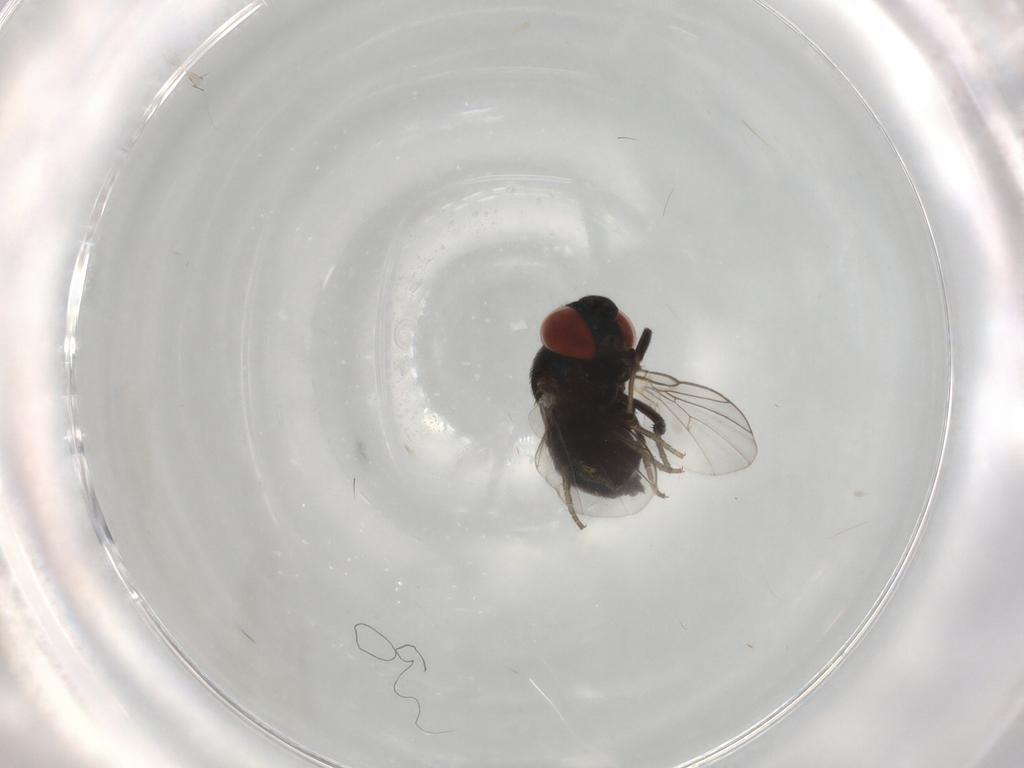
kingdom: Animalia
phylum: Arthropoda
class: Insecta
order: Diptera
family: Cryptochetidae
